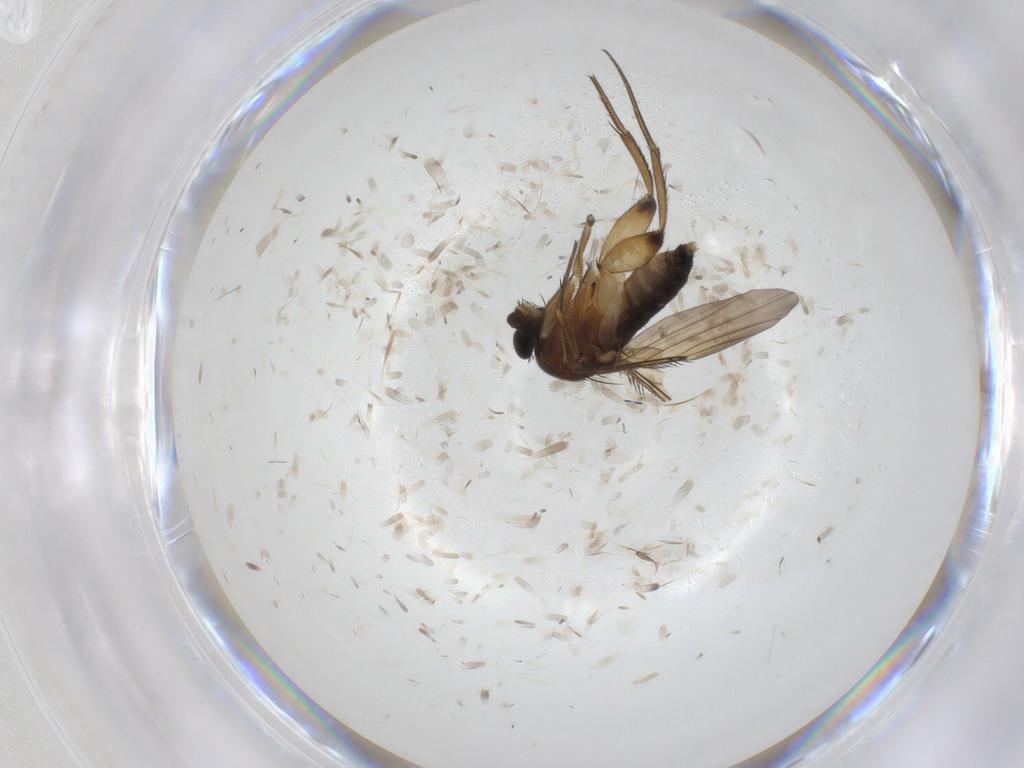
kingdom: Animalia
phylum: Arthropoda
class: Insecta
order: Diptera
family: Phoridae
